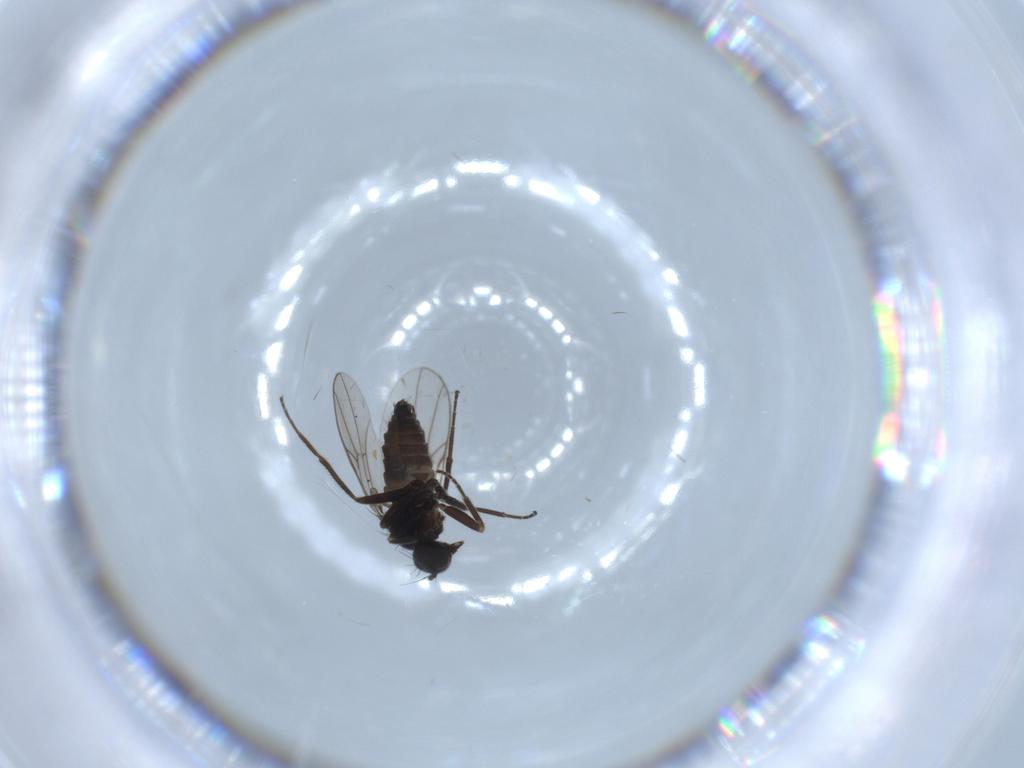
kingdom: Animalia
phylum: Arthropoda
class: Insecta
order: Diptera
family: Hybotidae
